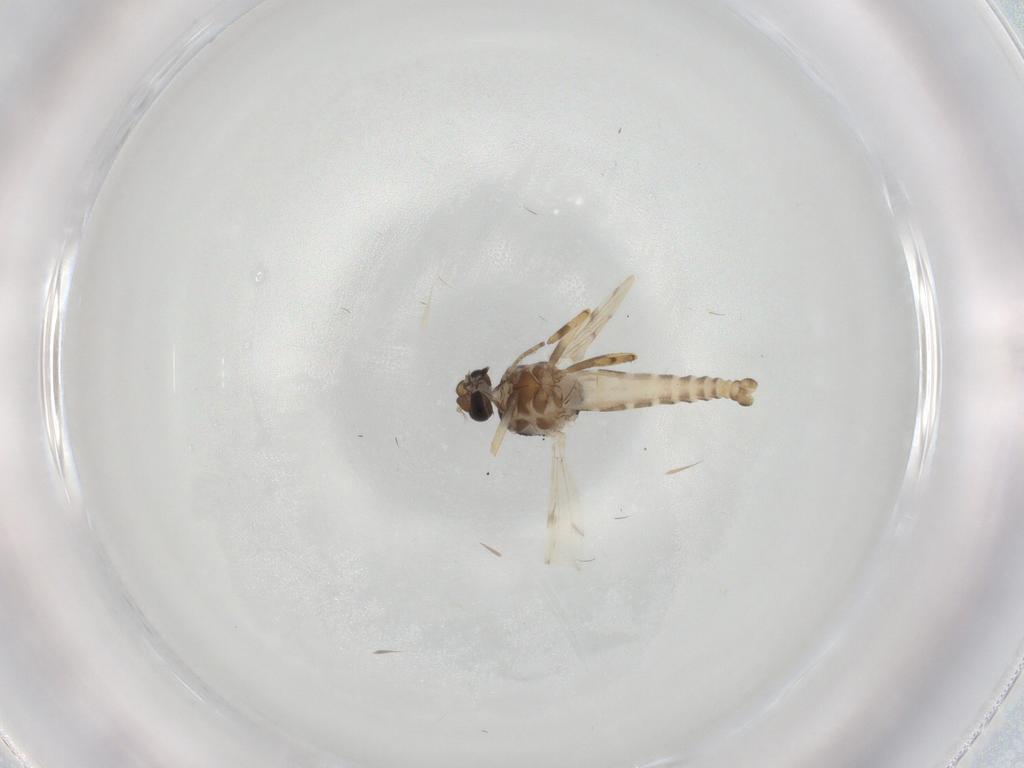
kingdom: Animalia
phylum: Arthropoda
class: Insecta
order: Diptera
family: Ceratopogonidae
